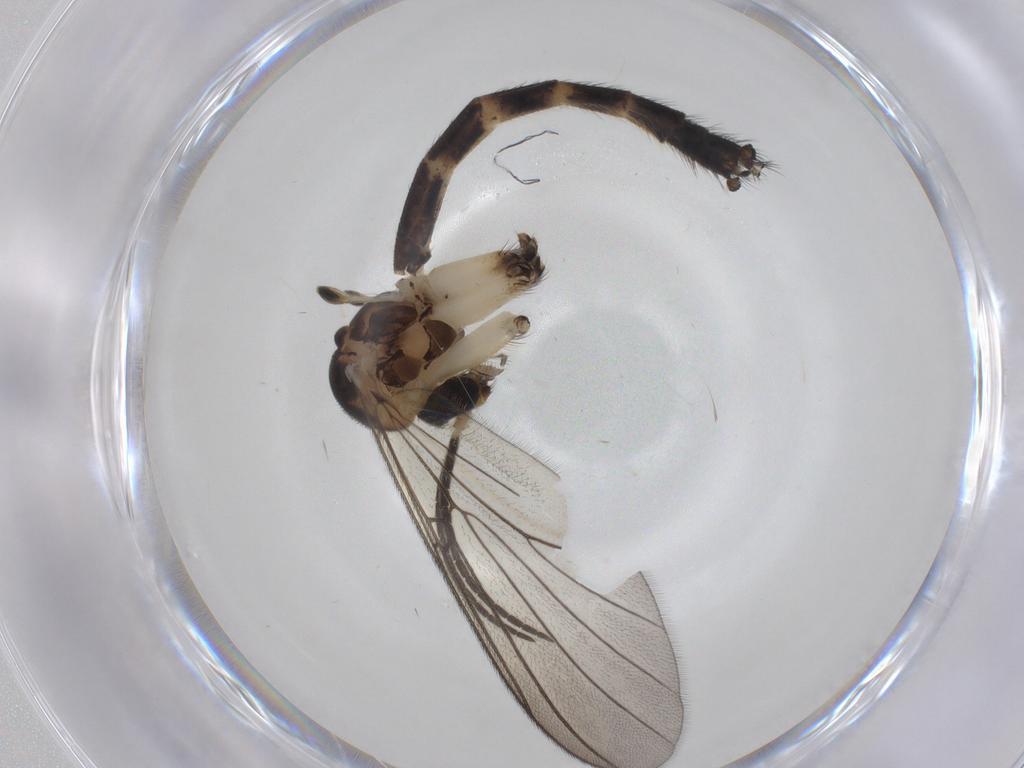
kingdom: Animalia
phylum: Arthropoda
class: Insecta
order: Diptera
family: Mycetophilidae
